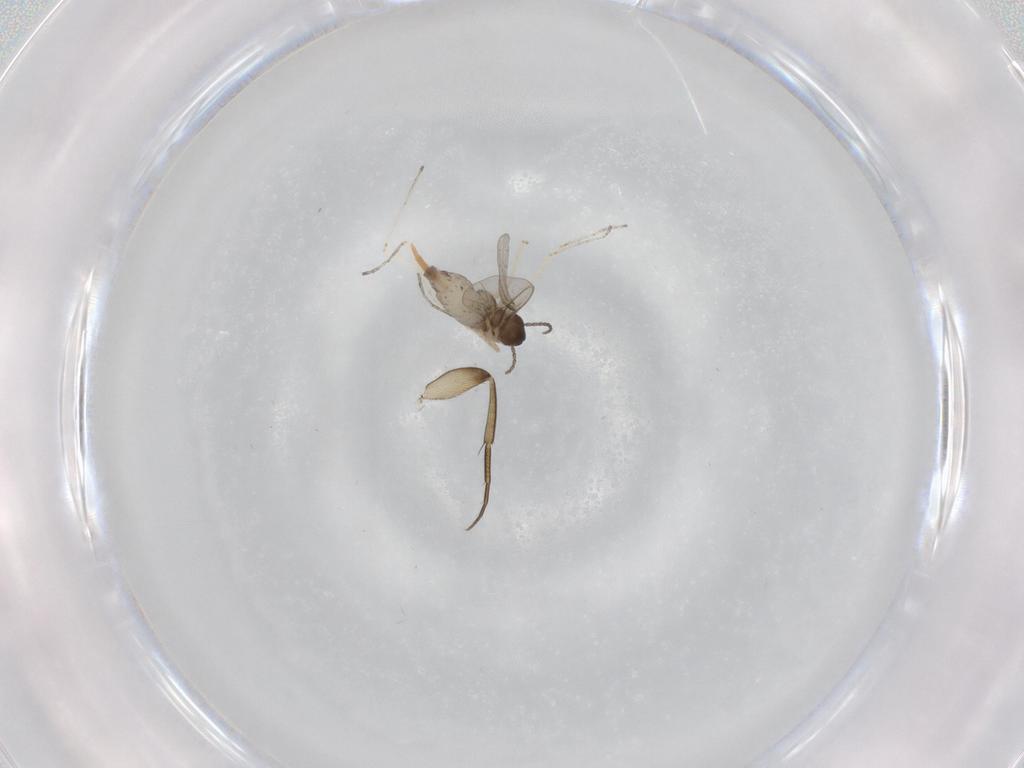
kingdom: Animalia
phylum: Arthropoda
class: Insecta
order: Diptera
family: Phoridae
